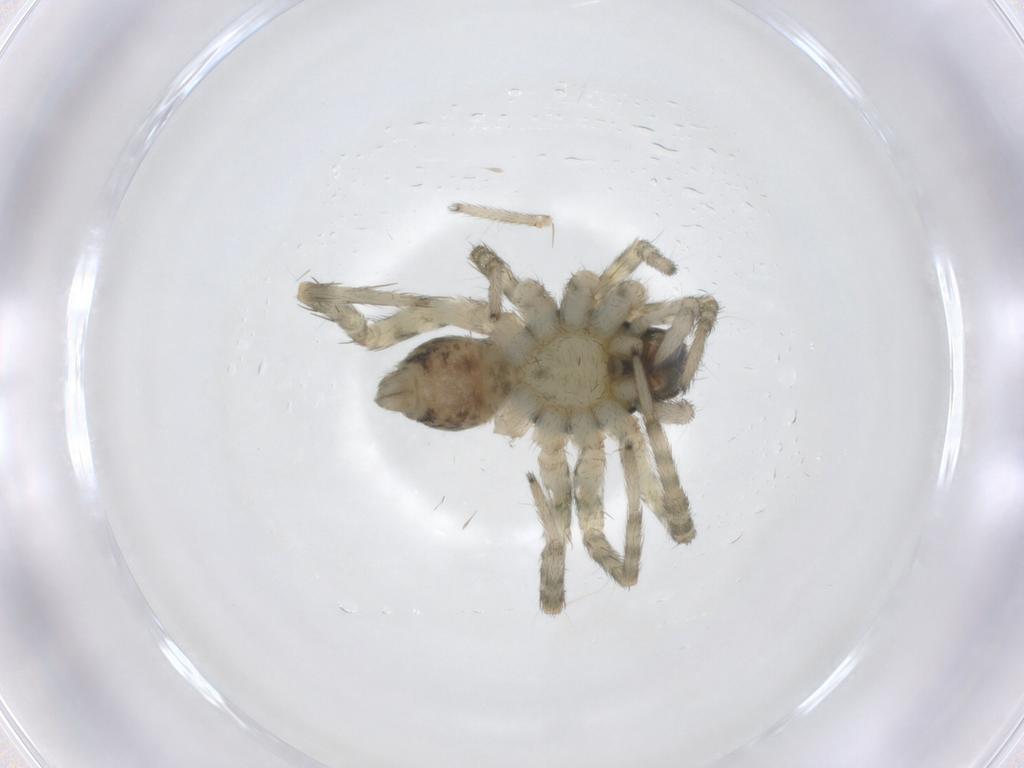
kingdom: Animalia
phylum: Arthropoda
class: Arachnida
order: Araneae
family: Lycosidae
